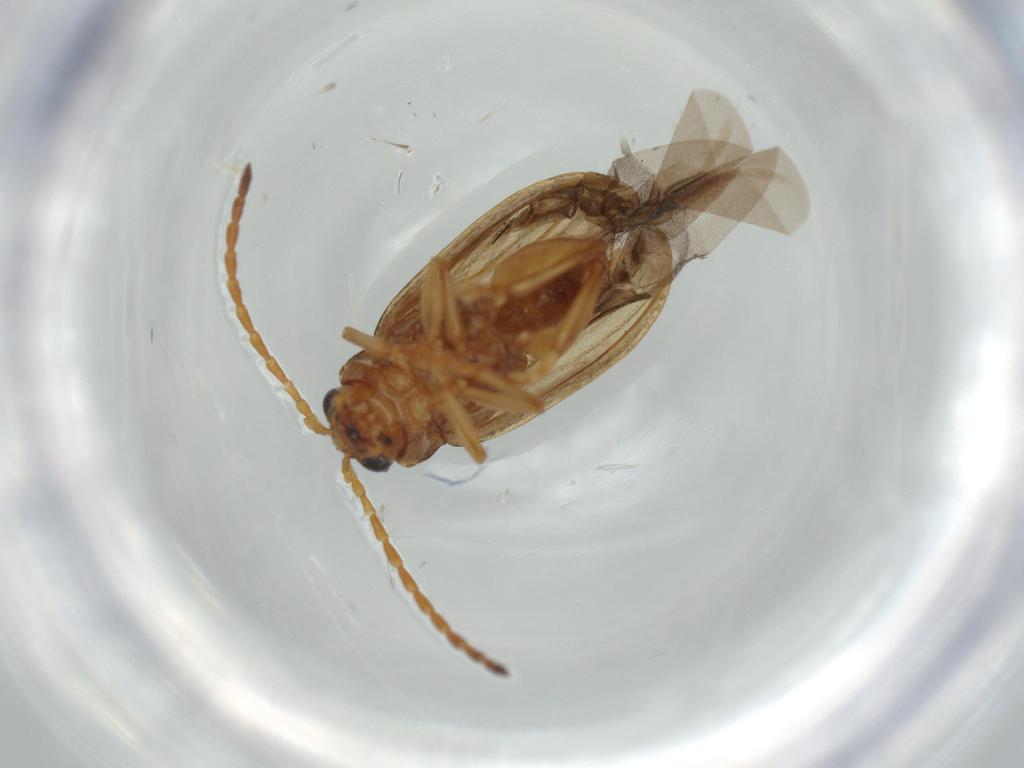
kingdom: Animalia
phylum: Arthropoda
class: Insecta
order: Coleoptera
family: Chrysomelidae
